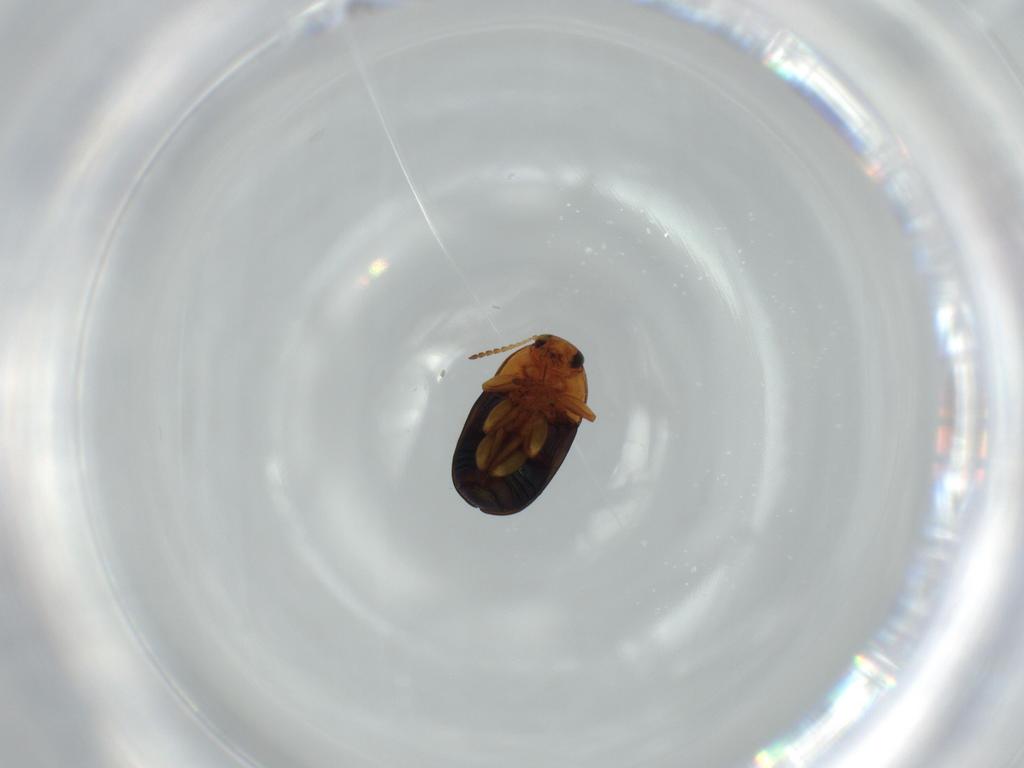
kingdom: Animalia
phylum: Arthropoda
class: Insecta
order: Coleoptera
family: Chrysomelidae
